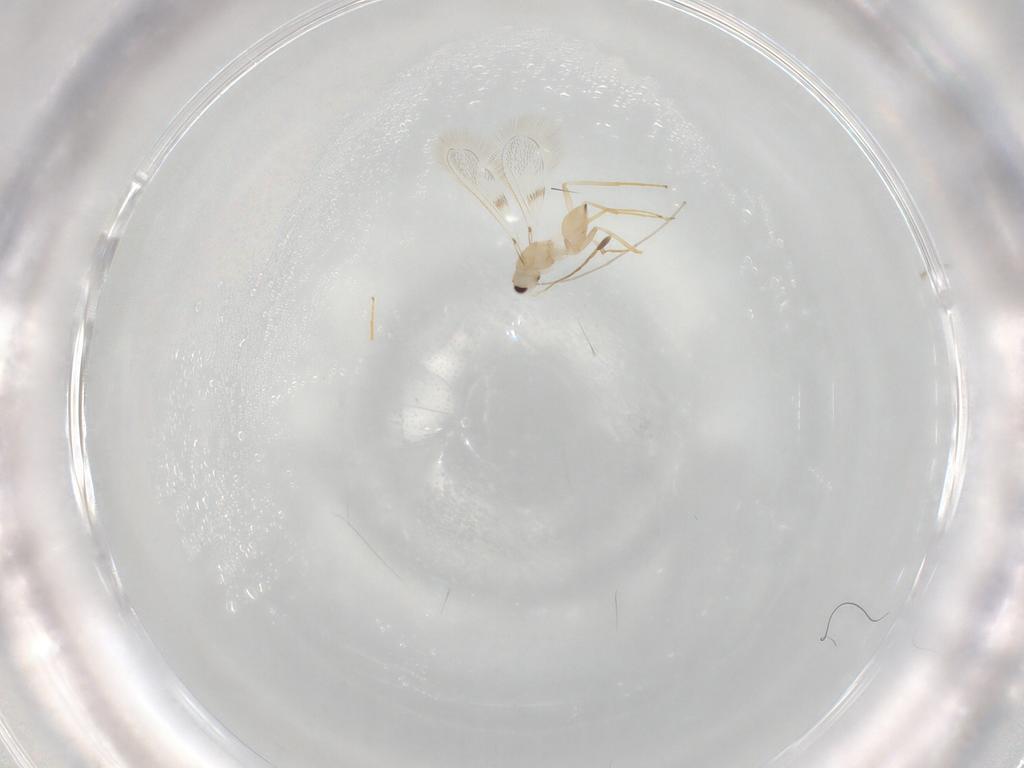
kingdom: Animalia
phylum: Arthropoda
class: Insecta
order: Hymenoptera
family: Mymaridae
